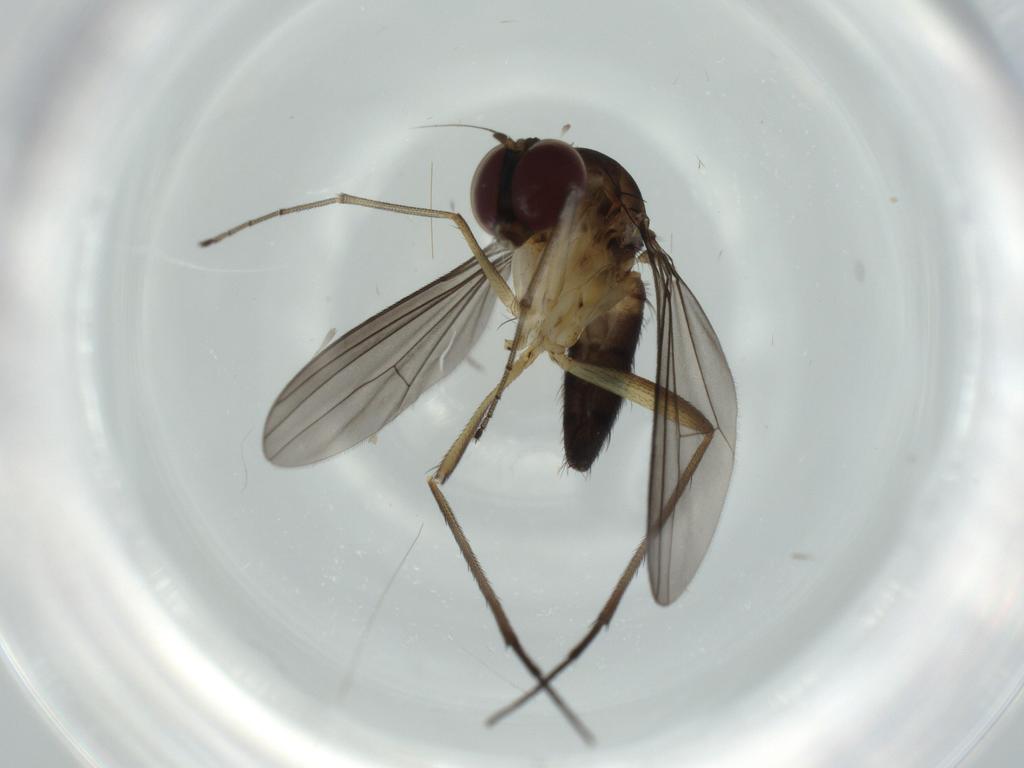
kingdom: Animalia
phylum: Arthropoda
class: Insecta
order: Diptera
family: Dolichopodidae
